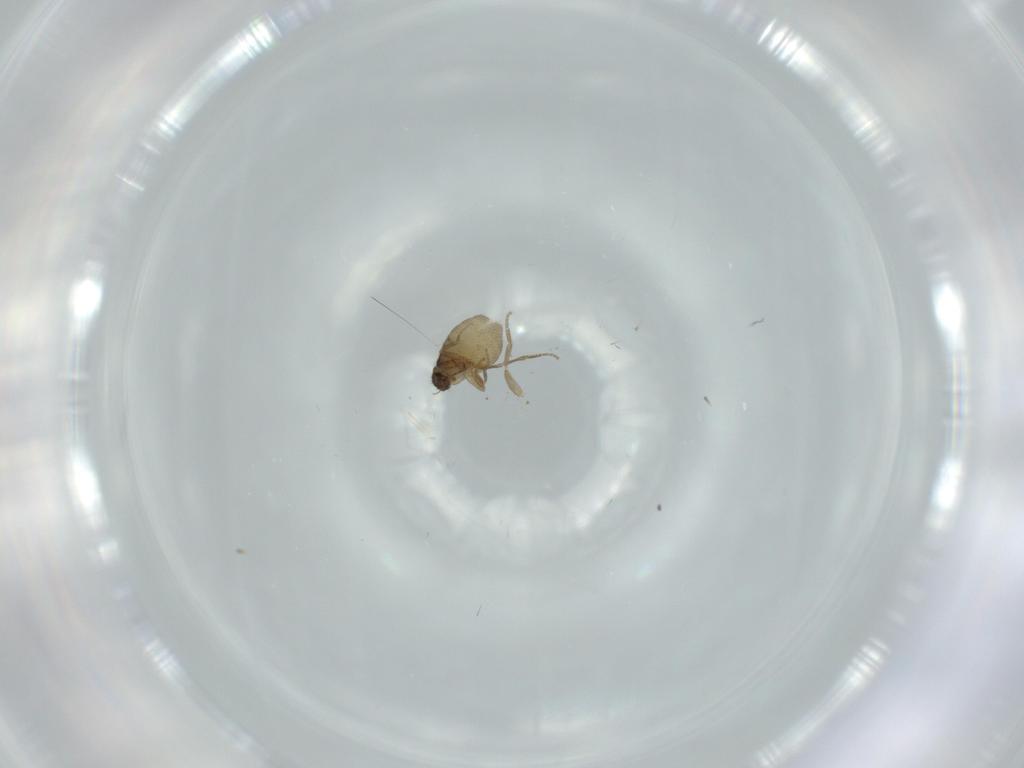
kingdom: Animalia
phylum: Arthropoda
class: Insecta
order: Diptera
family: Phoridae
